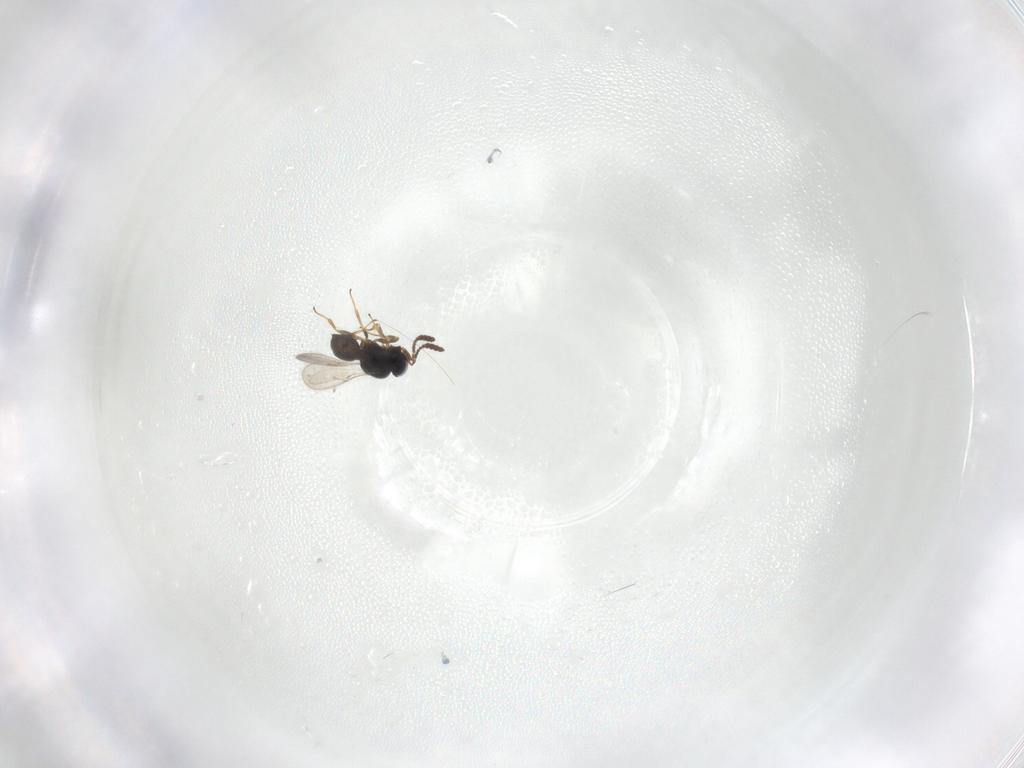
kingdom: Animalia
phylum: Arthropoda
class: Insecta
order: Hymenoptera
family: Scelionidae
